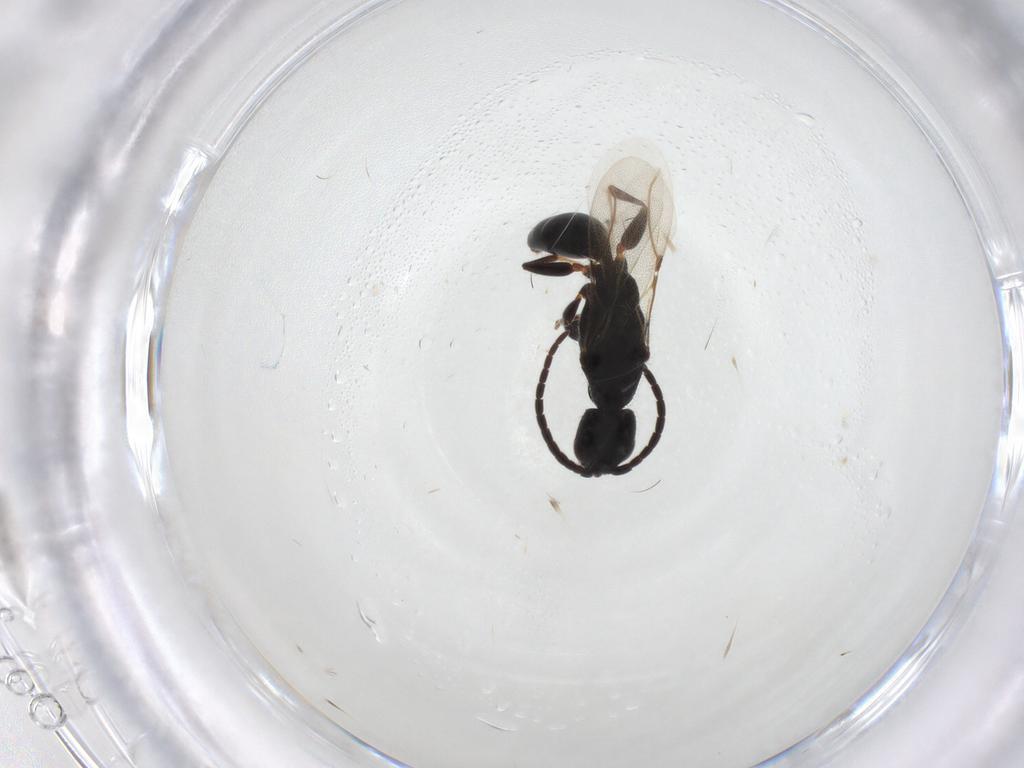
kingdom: Animalia
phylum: Arthropoda
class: Insecta
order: Hymenoptera
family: Bethylidae
